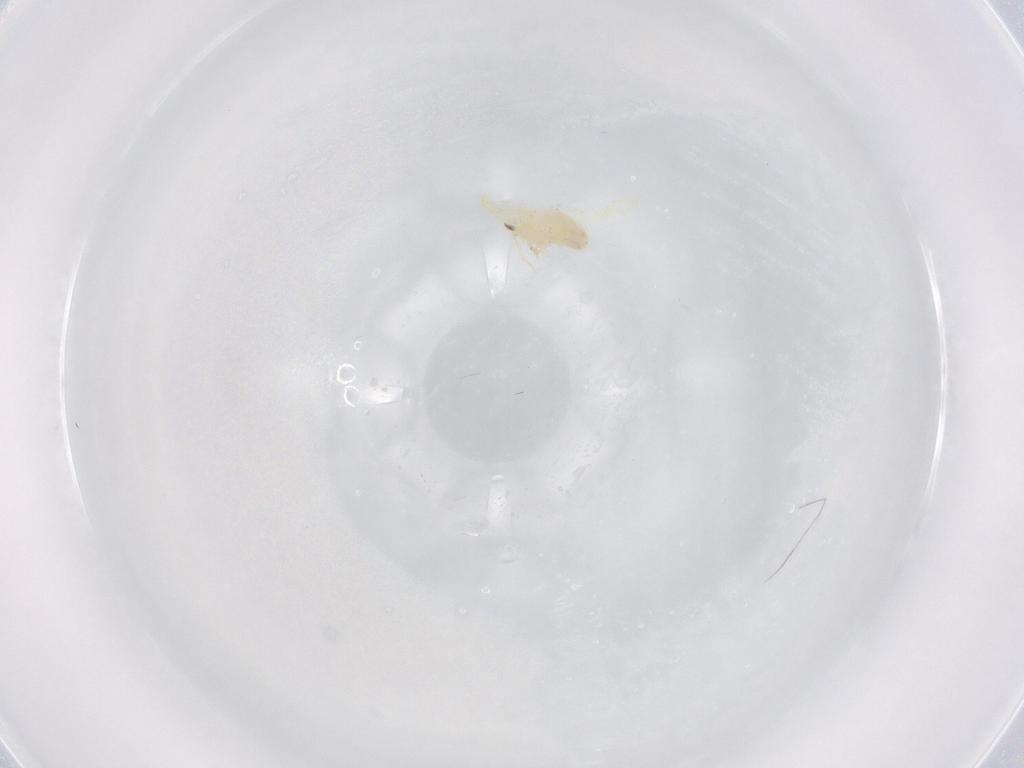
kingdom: Animalia
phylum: Arthropoda
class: Insecta
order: Hemiptera
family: Aleyrodidae
